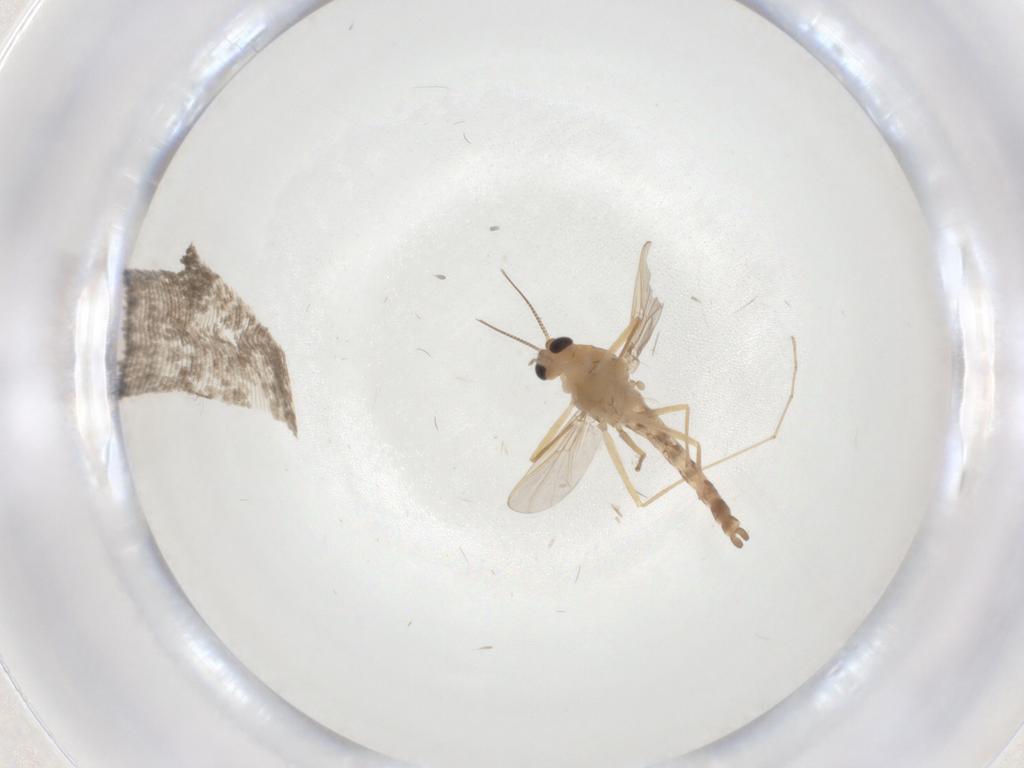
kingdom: Animalia
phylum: Arthropoda
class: Insecta
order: Diptera
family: Chironomidae
